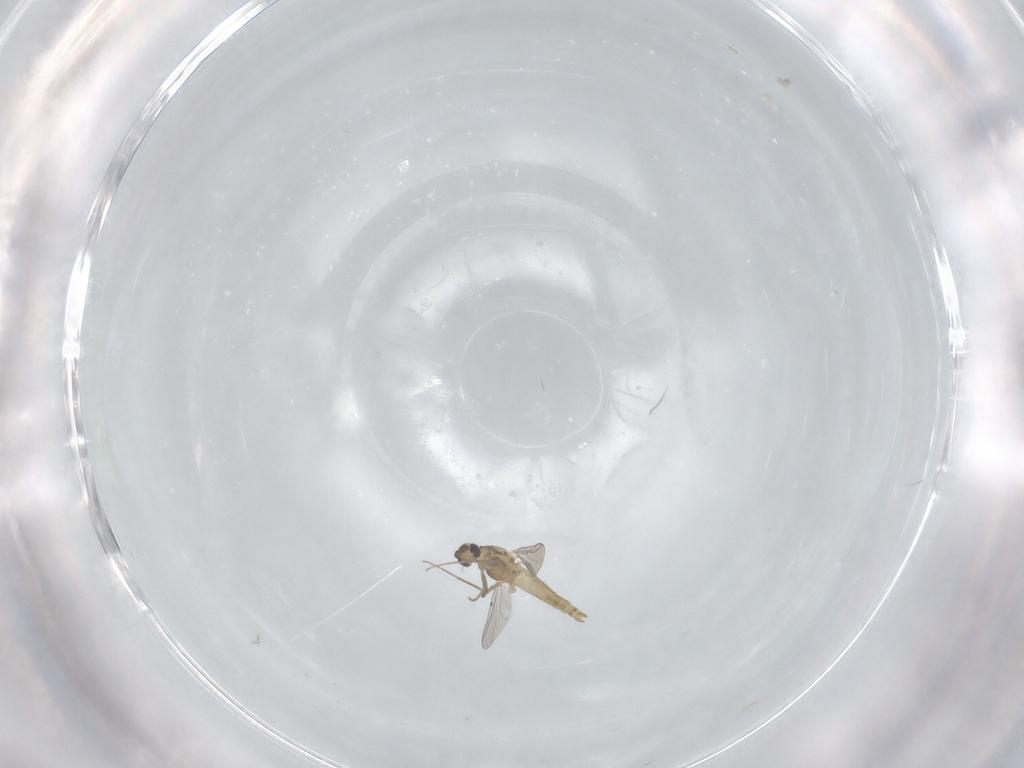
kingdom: Animalia
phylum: Arthropoda
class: Insecta
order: Diptera
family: Chironomidae
